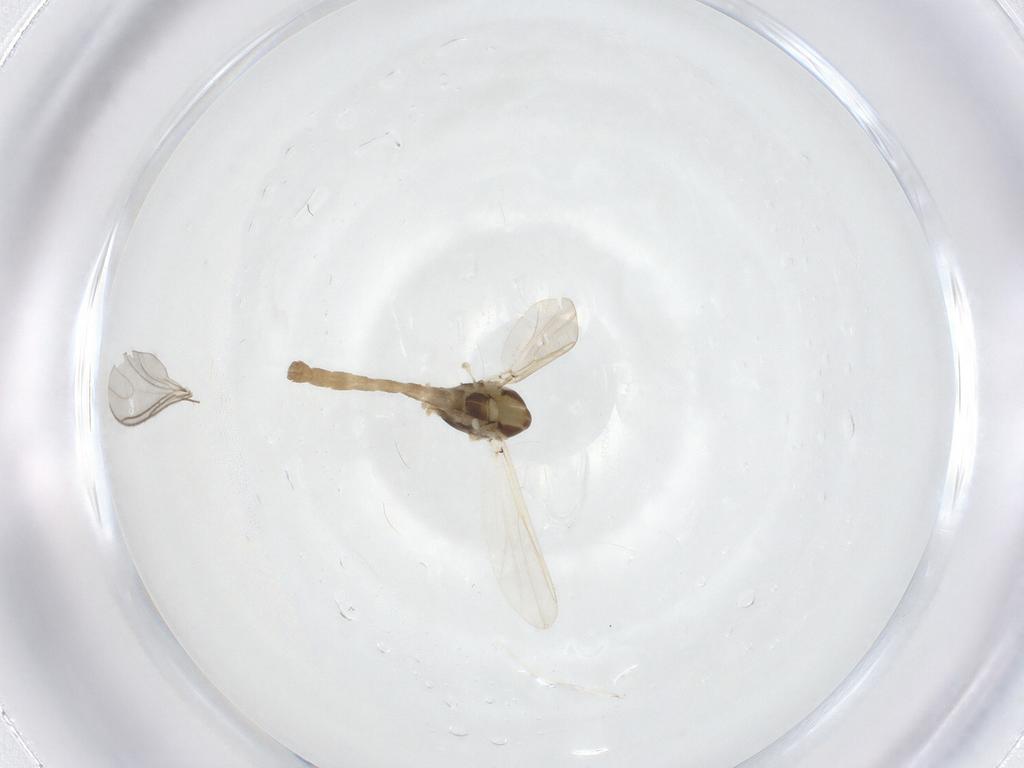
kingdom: Animalia
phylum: Arthropoda
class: Insecta
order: Diptera
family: Chironomidae
